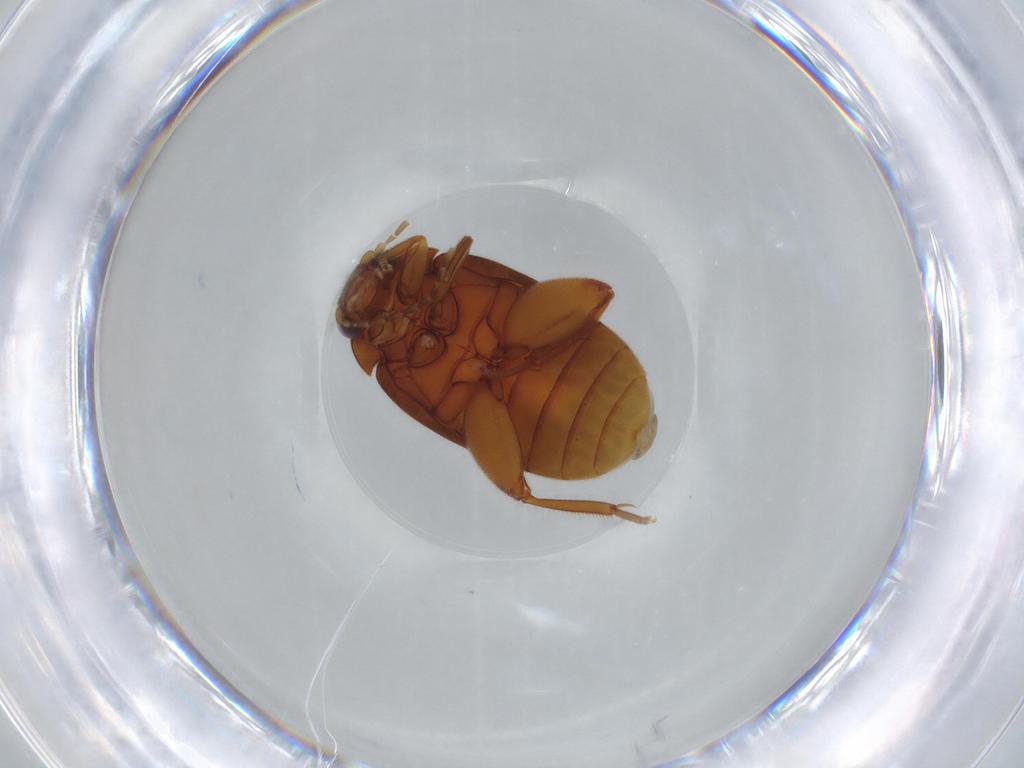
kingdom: Animalia
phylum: Arthropoda
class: Insecta
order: Coleoptera
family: Scirtidae
